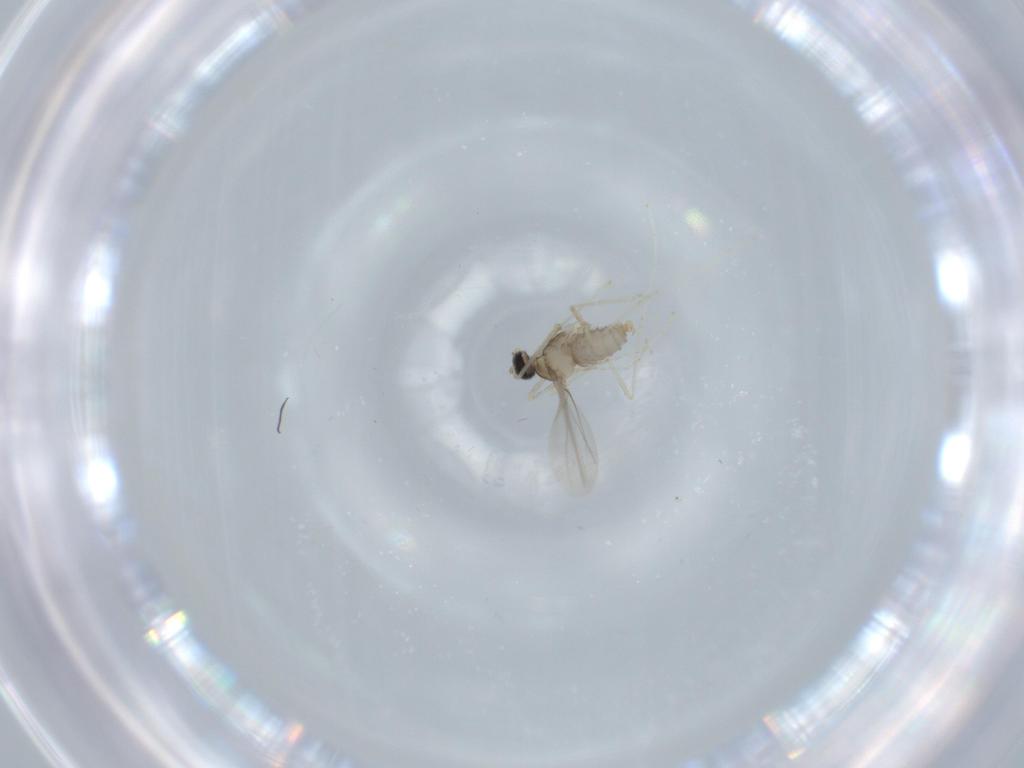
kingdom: Animalia
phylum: Arthropoda
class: Insecta
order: Diptera
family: Hybotidae
